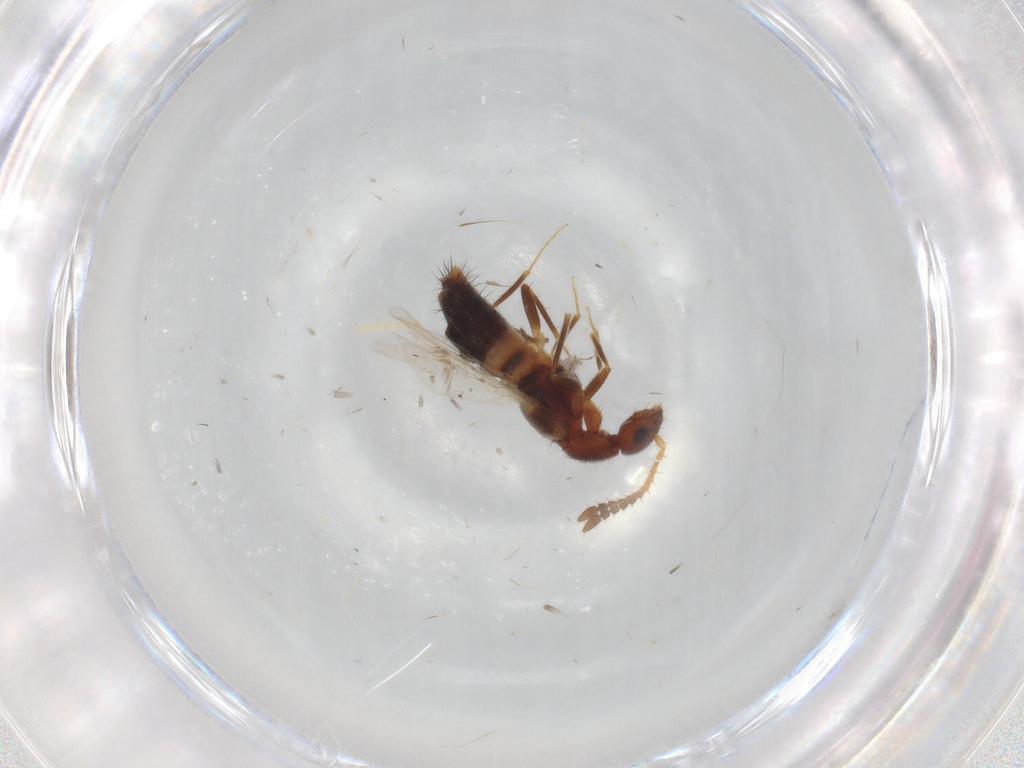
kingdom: Animalia
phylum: Arthropoda
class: Insecta
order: Coleoptera
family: Staphylinidae
